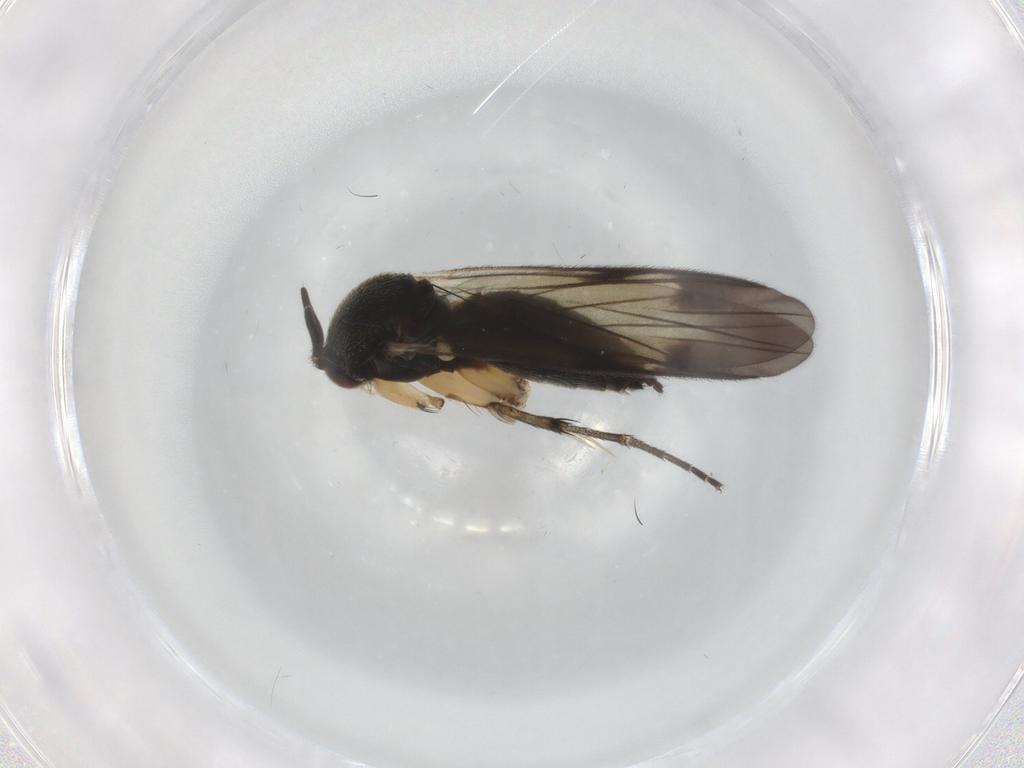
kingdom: Animalia
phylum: Arthropoda
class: Insecta
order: Diptera
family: Mycetophilidae
